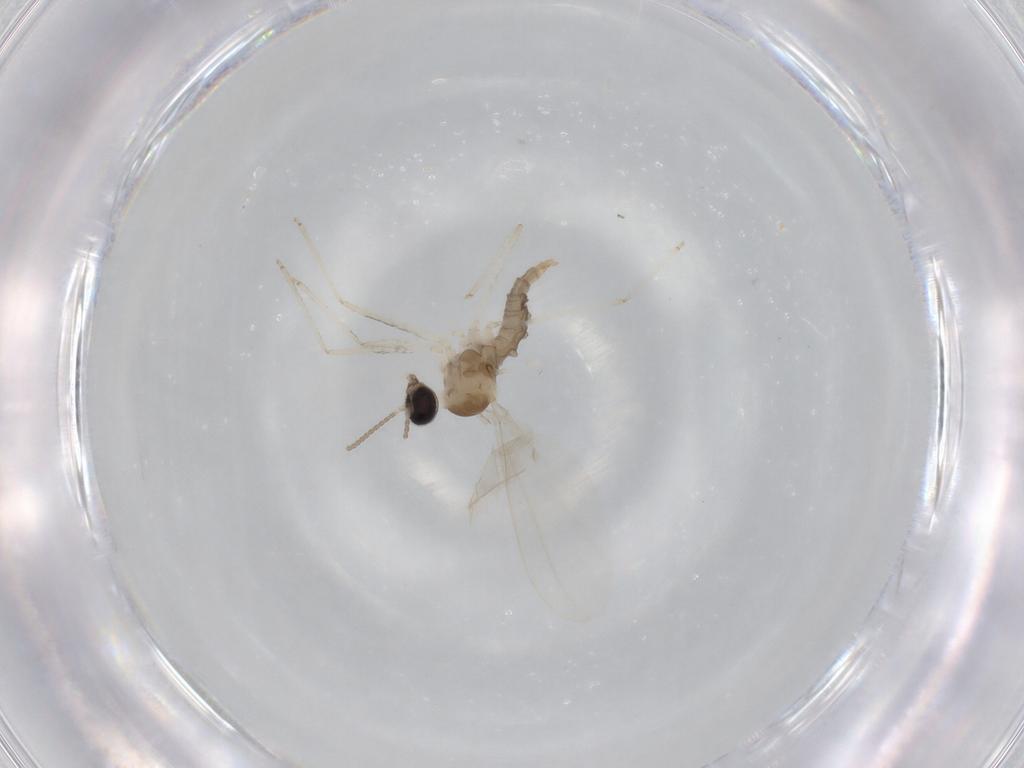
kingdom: Animalia
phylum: Arthropoda
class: Insecta
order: Diptera
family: Cecidomyiidae
